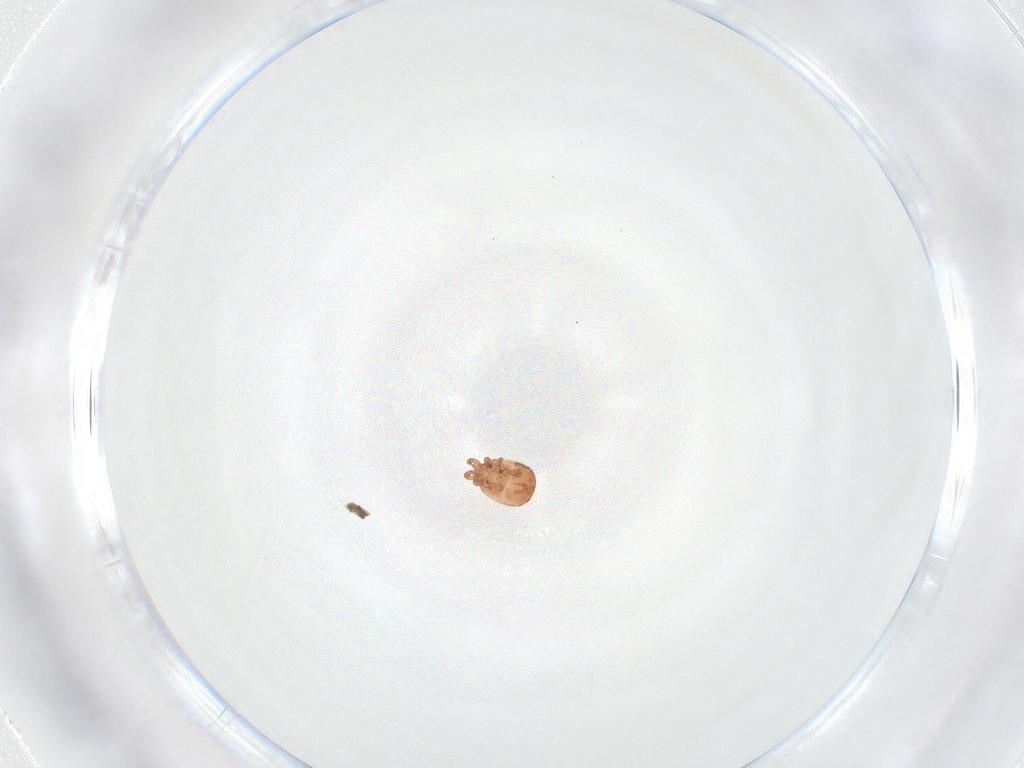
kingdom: Animalia
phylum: Arthropoda
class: Arachnida
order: Mesostigmata
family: Zerconidae
